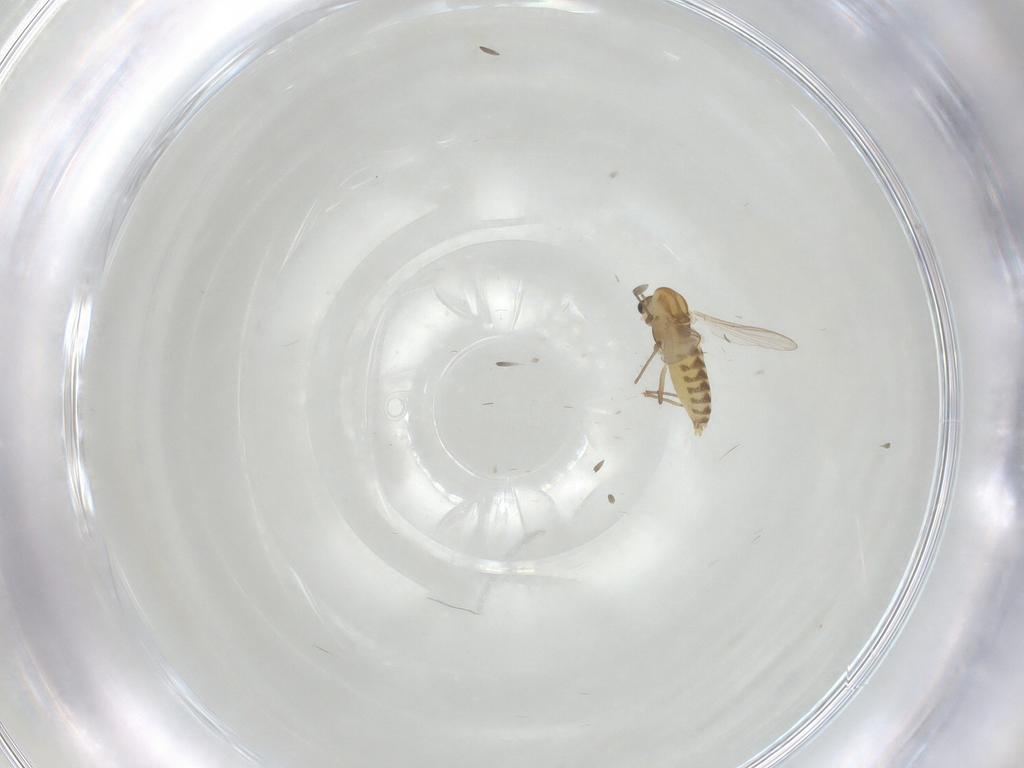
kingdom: Animalia
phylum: Arthropoda
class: Insecta
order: Diptera
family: Chironomidae
